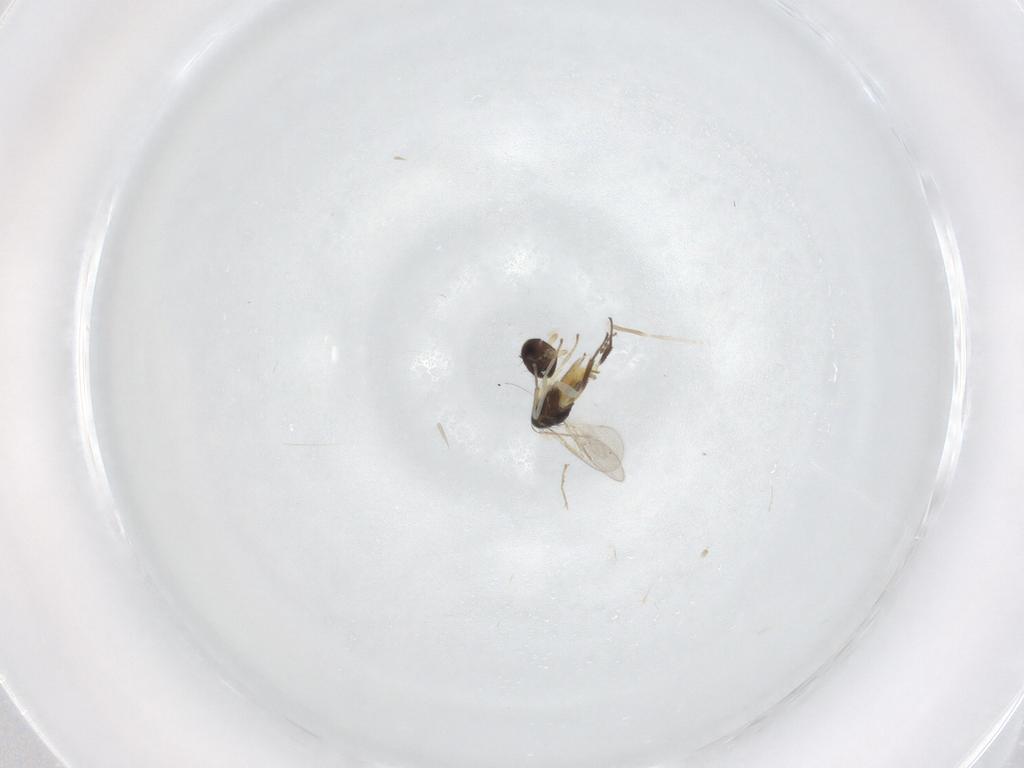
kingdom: Animalia
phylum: Arthropoda
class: Insecta
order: Hymenoptera
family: Aphelinidae
